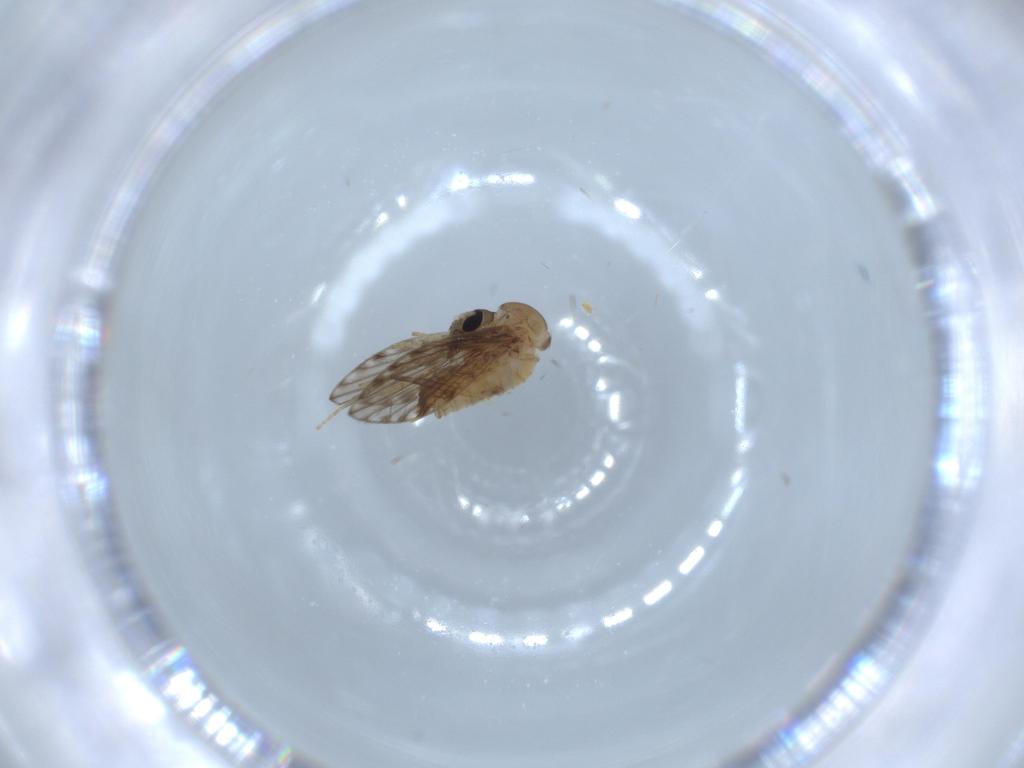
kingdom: Animalia
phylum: Arthropoda
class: Insecta
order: Diptera
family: Psychodidae
